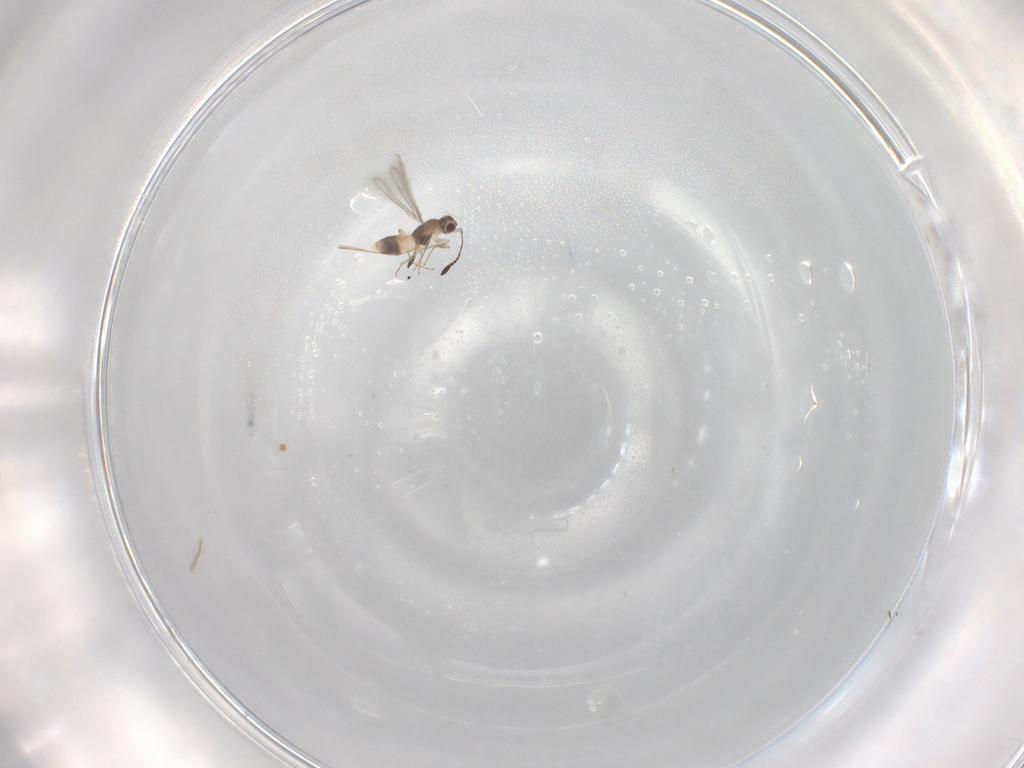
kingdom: Animalia
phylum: Arthropoda
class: Insecta
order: Hymenoptera
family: Mymaridae
